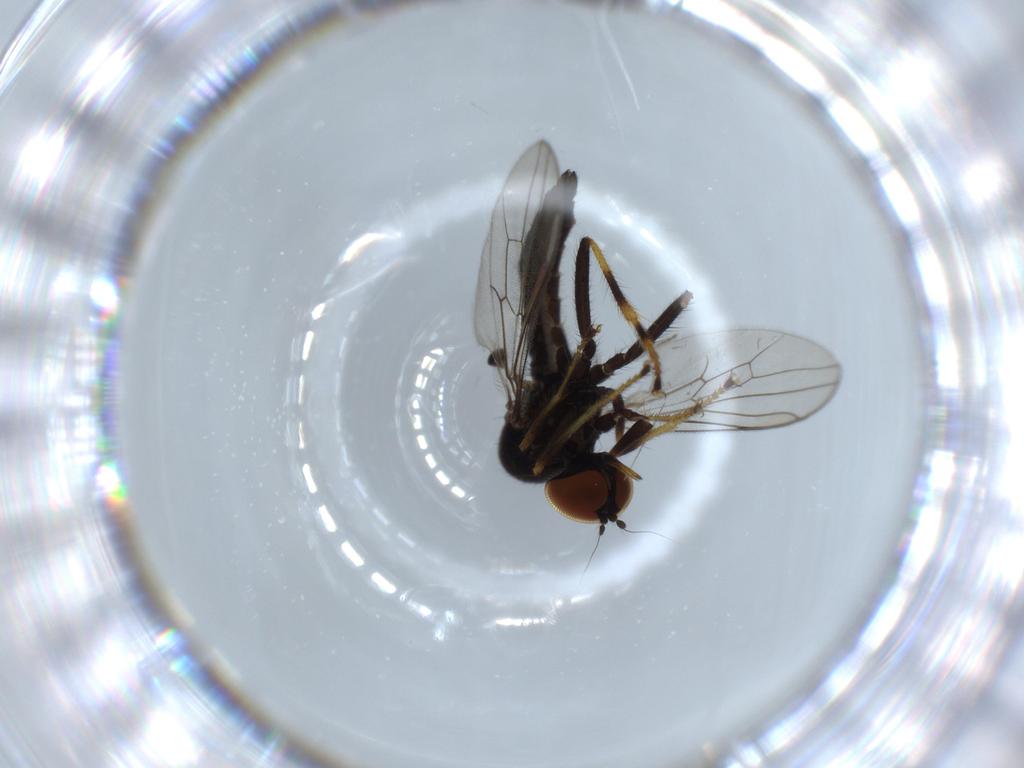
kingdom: Animalia
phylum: Arthropoda
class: Insecta
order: Diptera
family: Hybotidae
